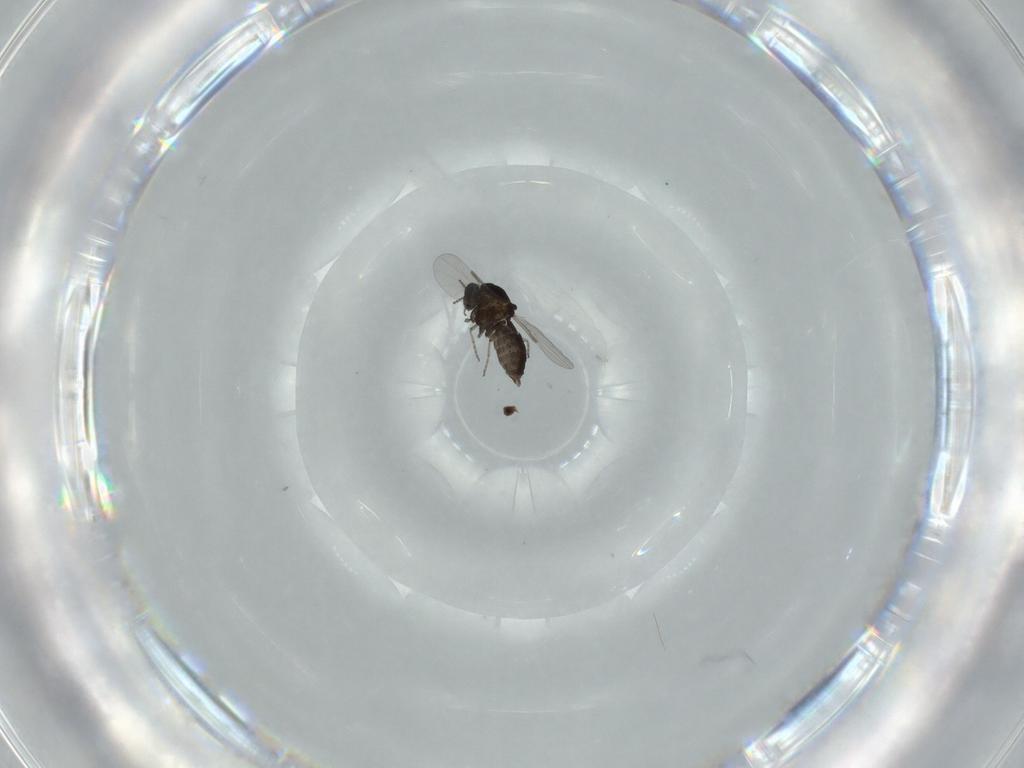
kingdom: Animalia
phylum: Arthropoda
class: Insecta
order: Diptera
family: Ceratopogonidae
